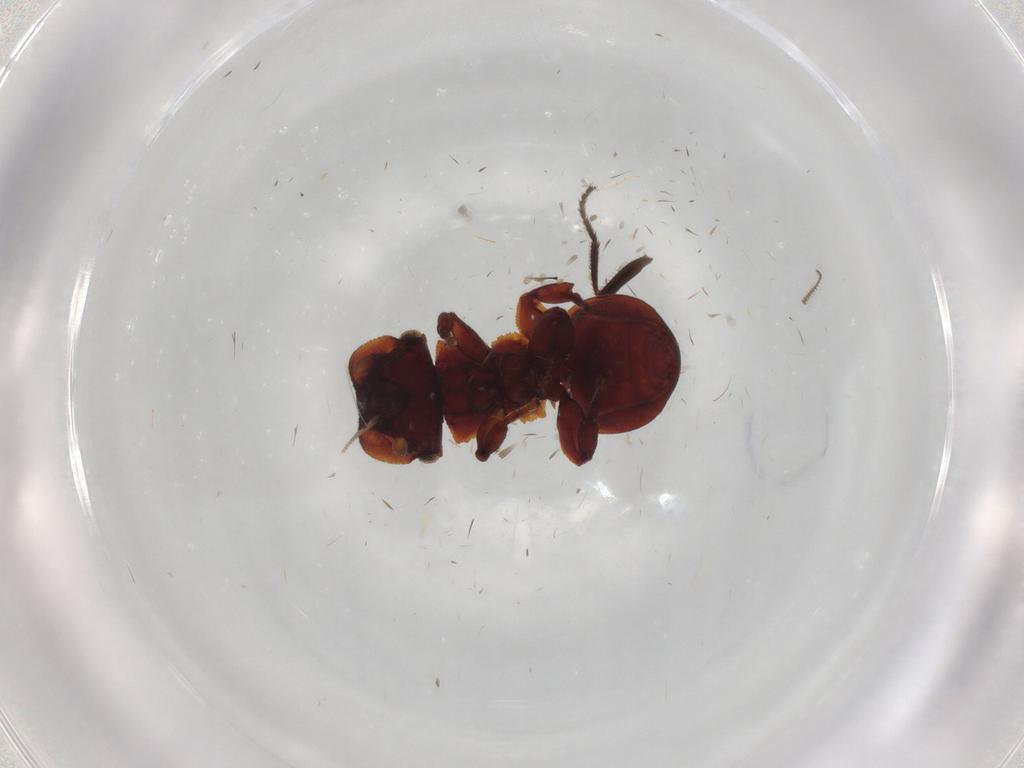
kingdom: Animalia
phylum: Arthropoda
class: Insecta
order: Hymenoptera
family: Formicidae
